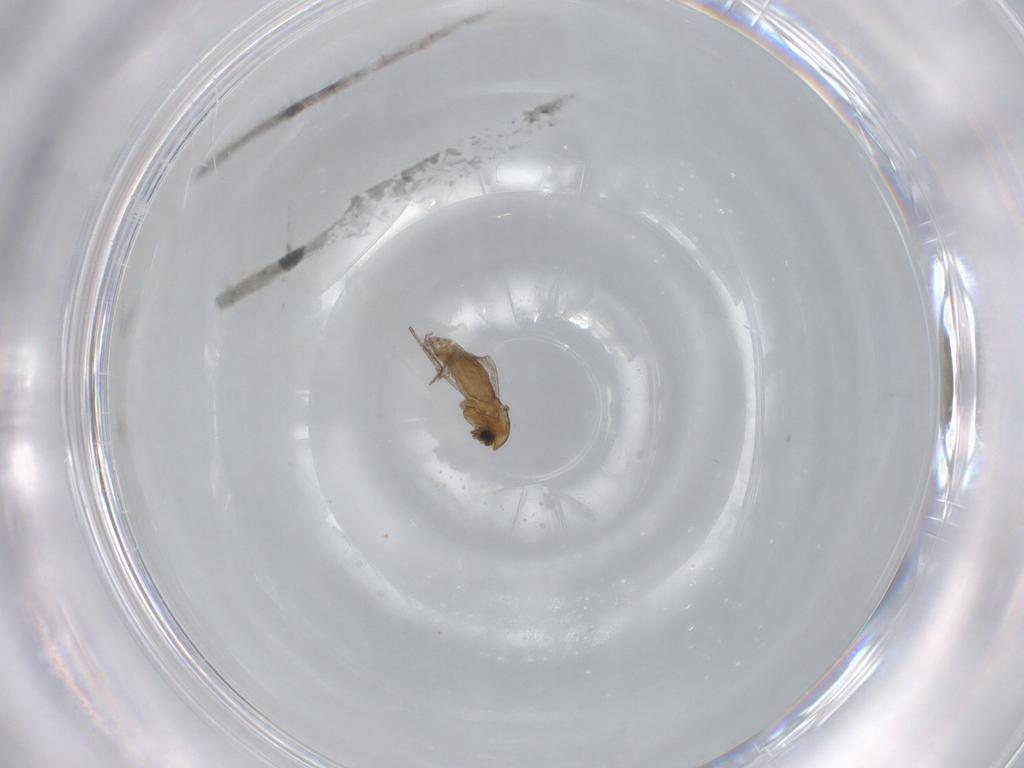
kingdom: Animalia
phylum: Arthropoda
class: Insecta
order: Diptera
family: Chironomidae
